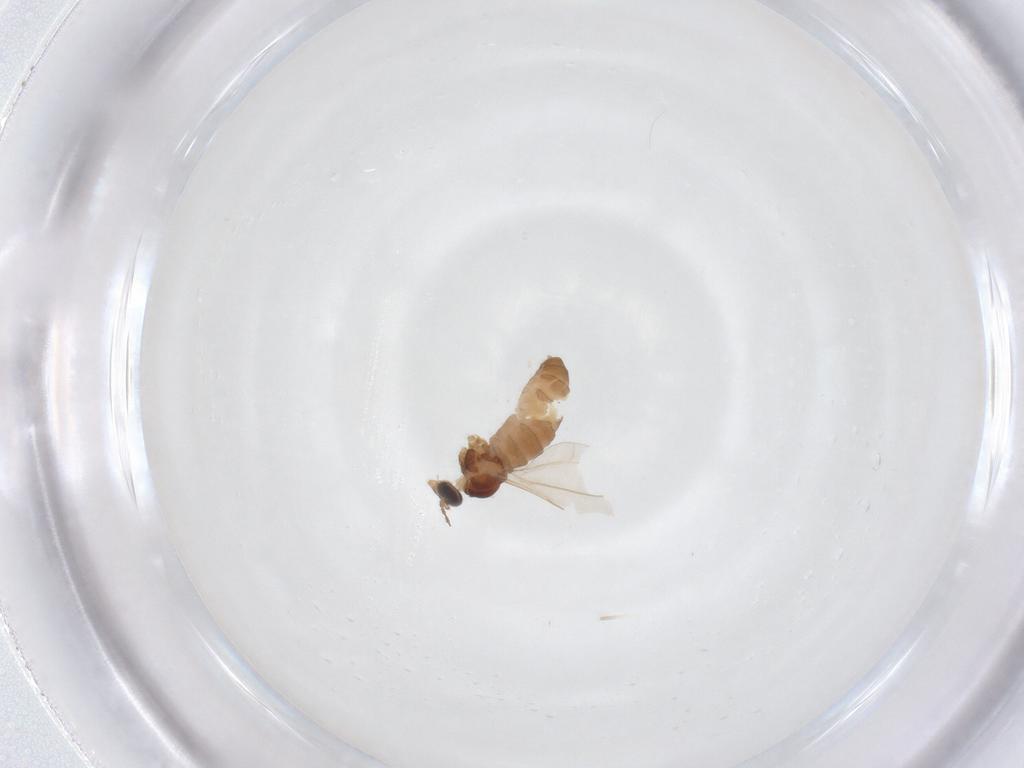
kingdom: Animalia
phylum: Arthropoda
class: Insecta
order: Diptera
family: Cecidomyiidae
